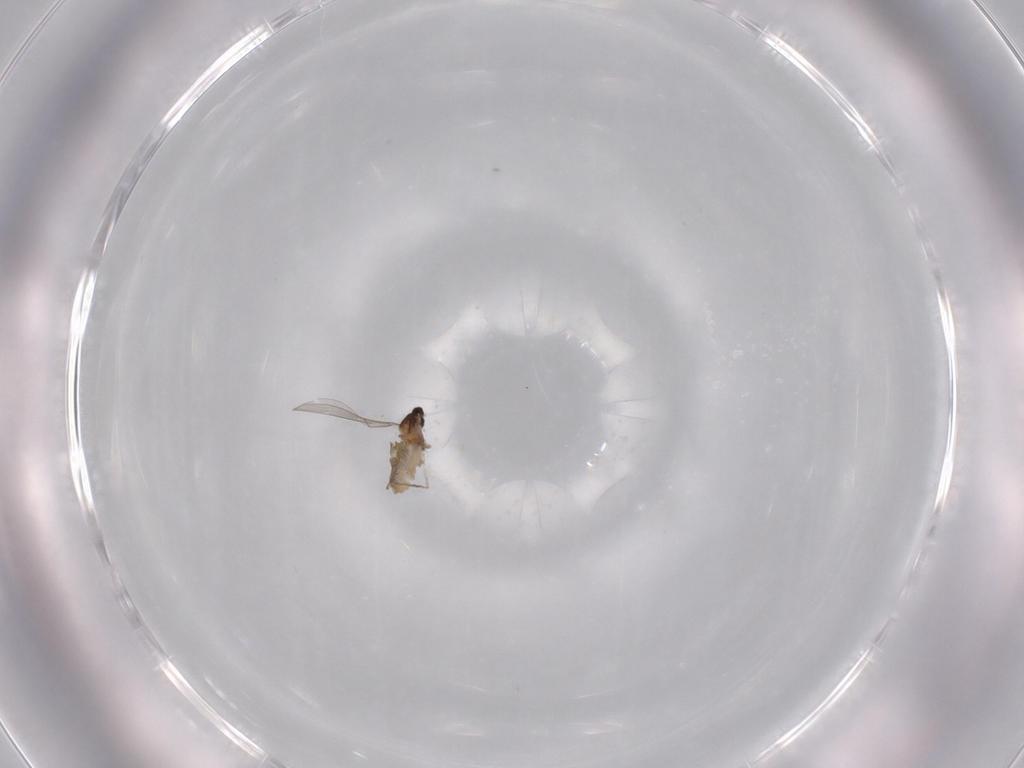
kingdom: Animalia
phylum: Arthropoda
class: Insecta
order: Diptera
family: Cecidomyiidae
